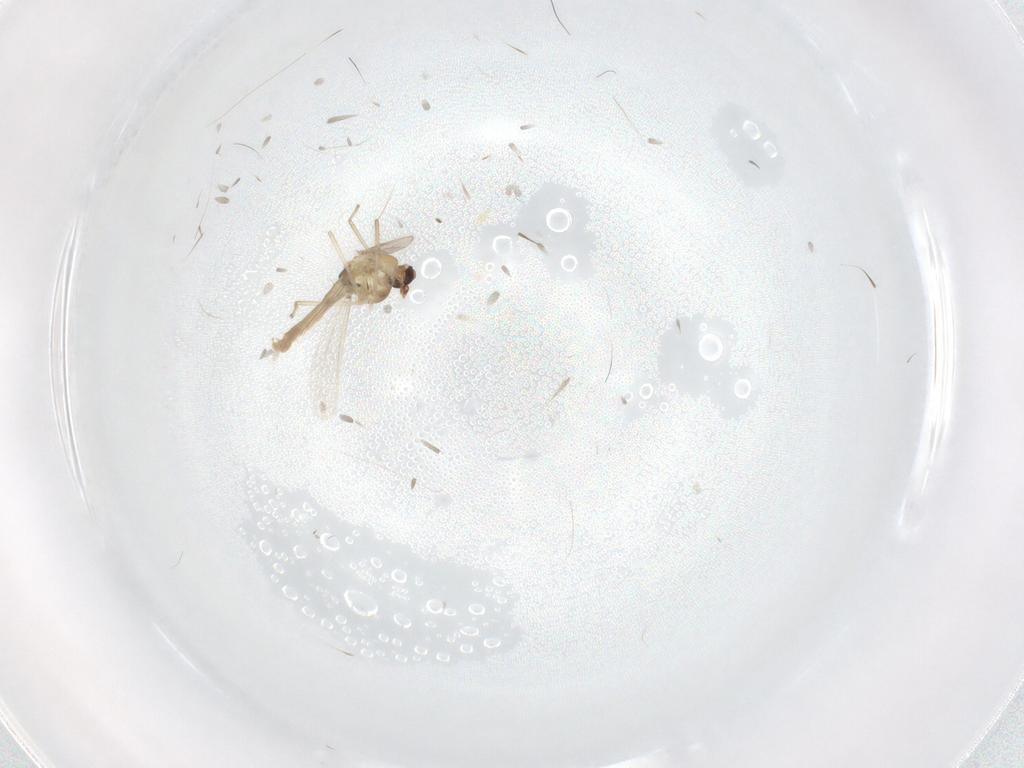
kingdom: Animalia
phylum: Arthropoda
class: Insecta
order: Diptera
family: Chironomidae
